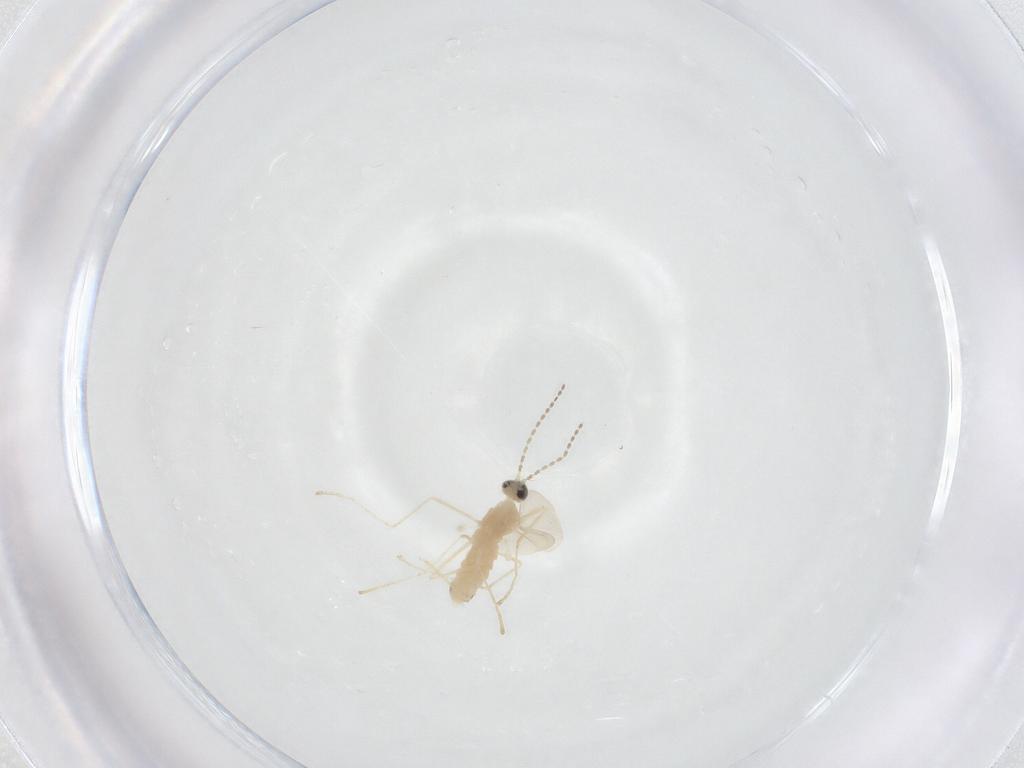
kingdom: Animalia
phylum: Arthropoda
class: Insecta
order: Diptera
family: Cecidomyiidae
